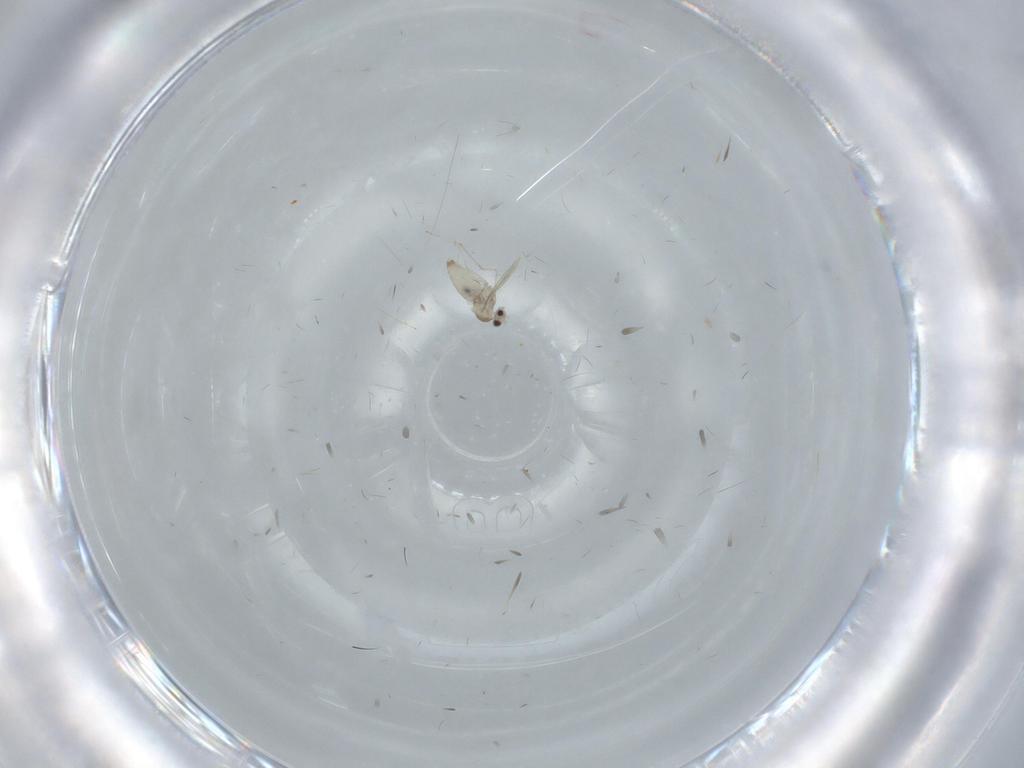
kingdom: Animalia
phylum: Arthropoda
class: Insecta
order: Diptera
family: Cecidomyiidae
